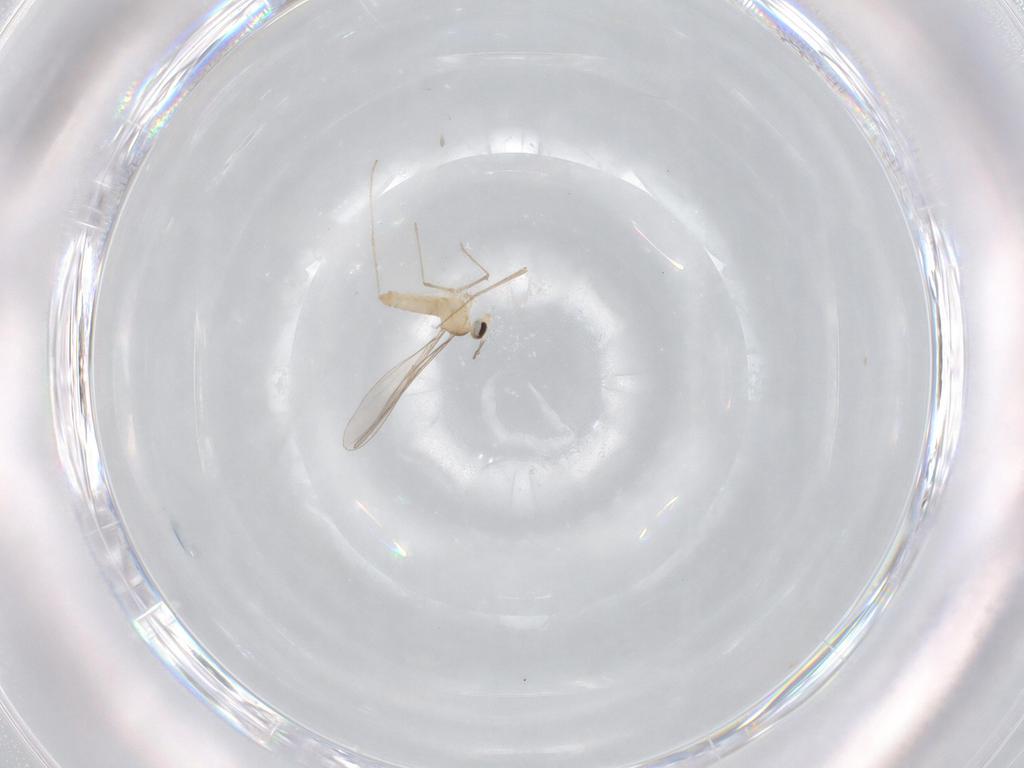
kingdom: Animalia
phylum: Arthropoda
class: Insecta
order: Diptera
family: Cecidomyiidae
